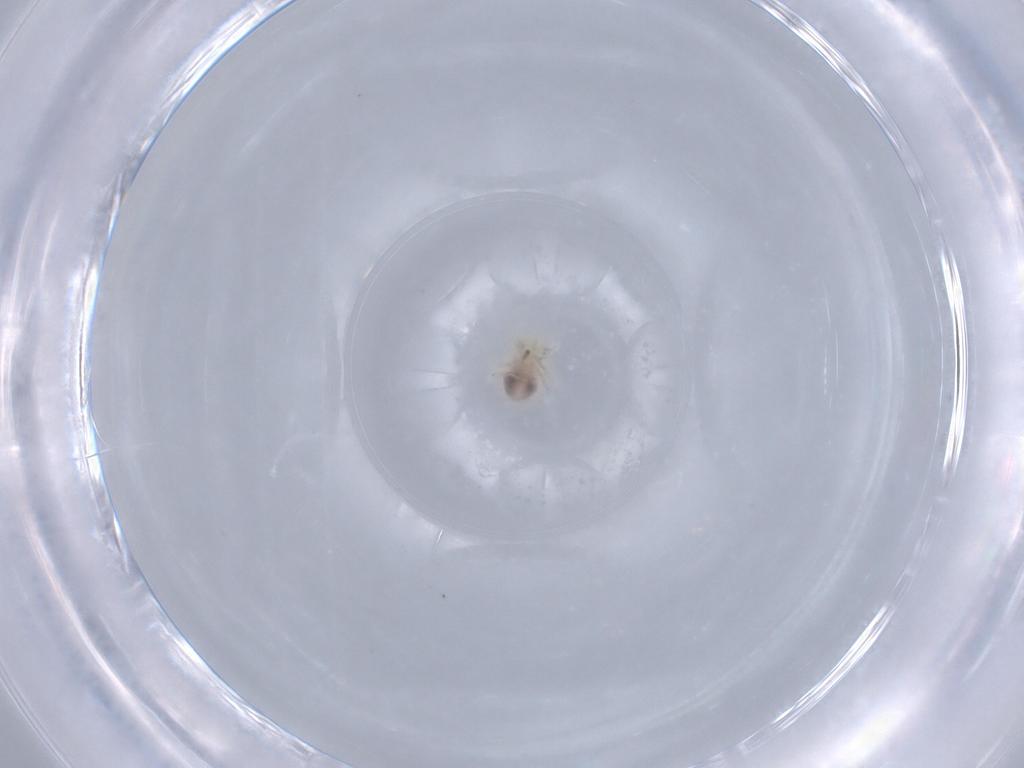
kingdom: Animalia
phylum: Arthropoda
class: Arachnida
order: Trombidiformes
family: Anystidae
